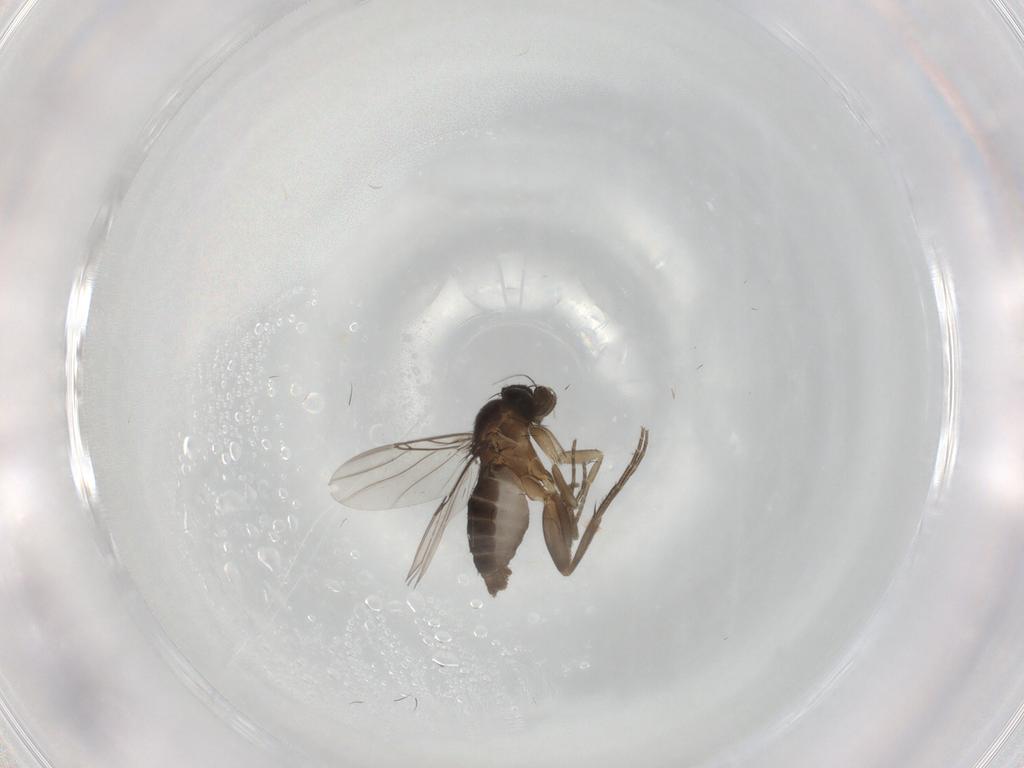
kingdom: Animalia
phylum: Arthropoda
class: Insecta
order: Diptera
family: Phoridae
